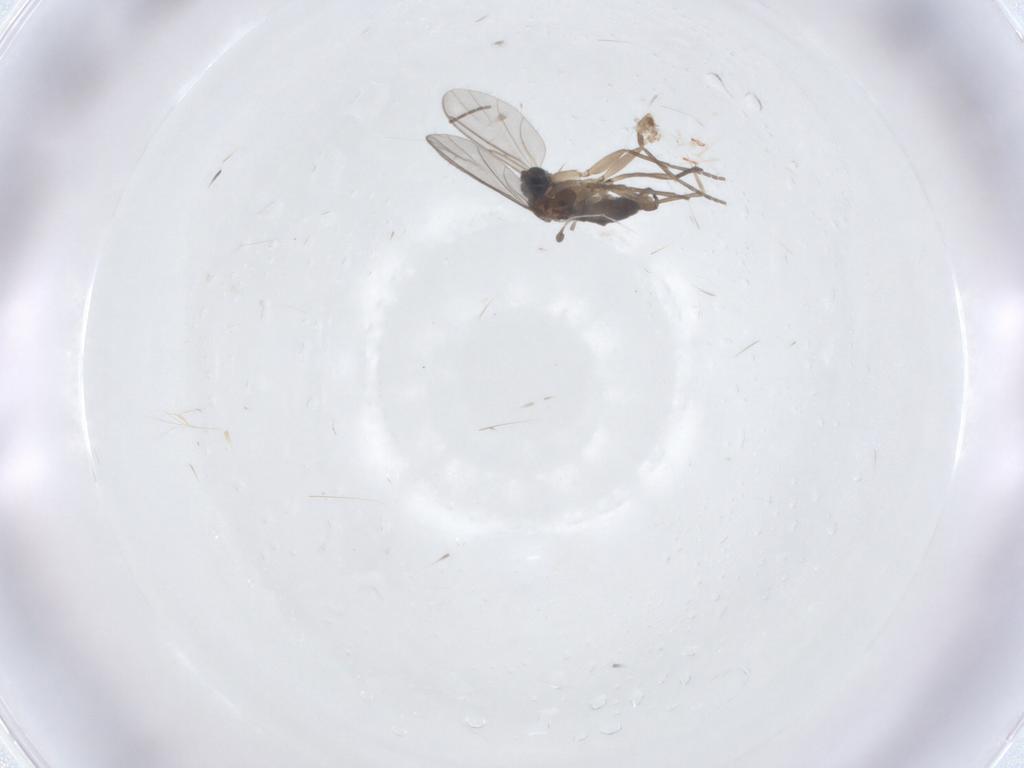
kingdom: Animalia
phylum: Arthropoda
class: Insecta
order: Diptera
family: Sciaridae
